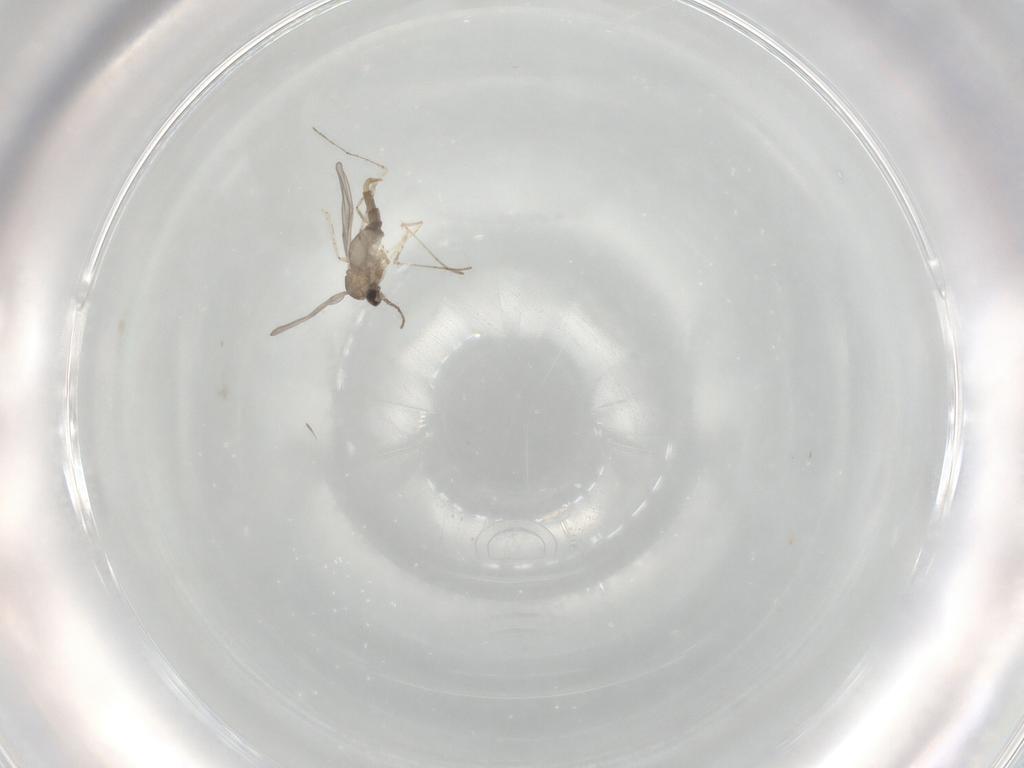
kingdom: Animalia
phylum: Arthropoda
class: Insecta
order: Diptera
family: Cecidomyiidae
